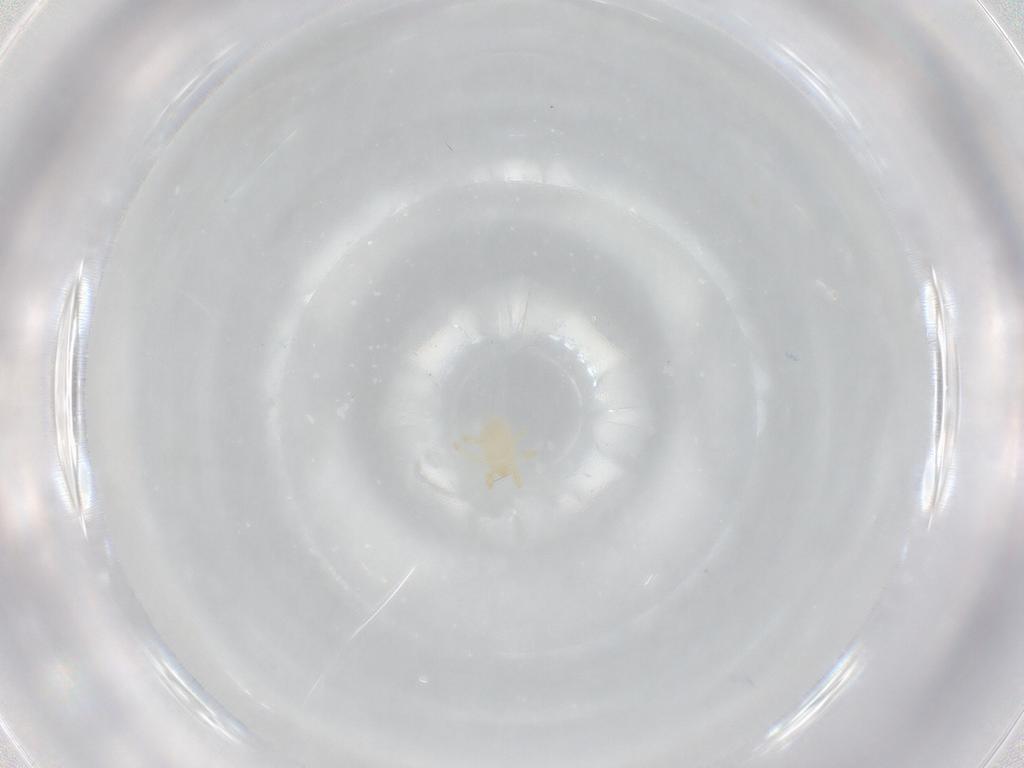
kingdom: Animalia
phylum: Arthropoda
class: Arachnida
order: Trombidiformes
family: Trombidiidae
